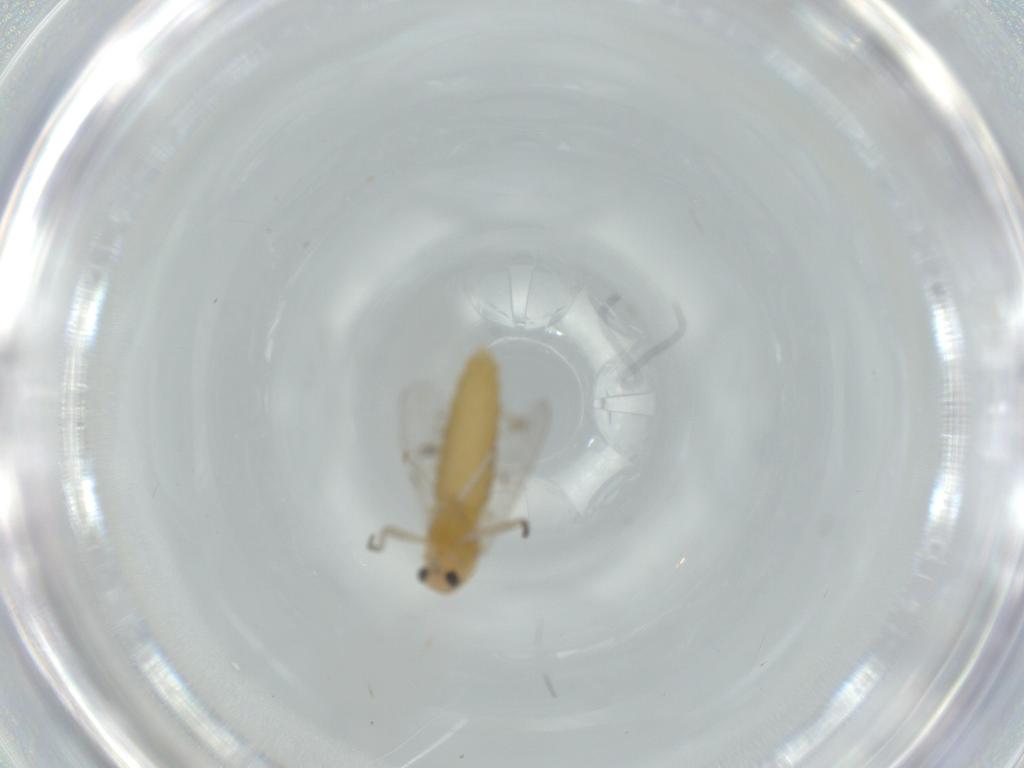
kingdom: Animalia
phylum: Arthropoda
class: Insecta
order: Diptera
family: Chironomidae
